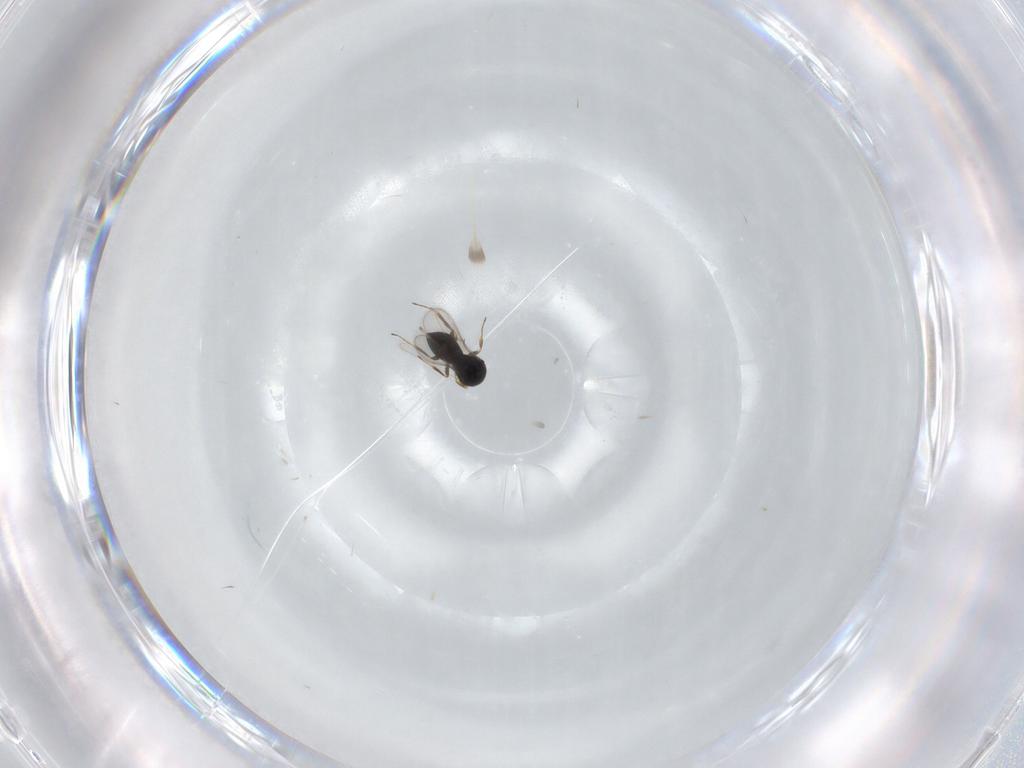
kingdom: Animalia
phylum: Arthropoda
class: Insecta
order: Hymenoptera
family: Scelionidae
